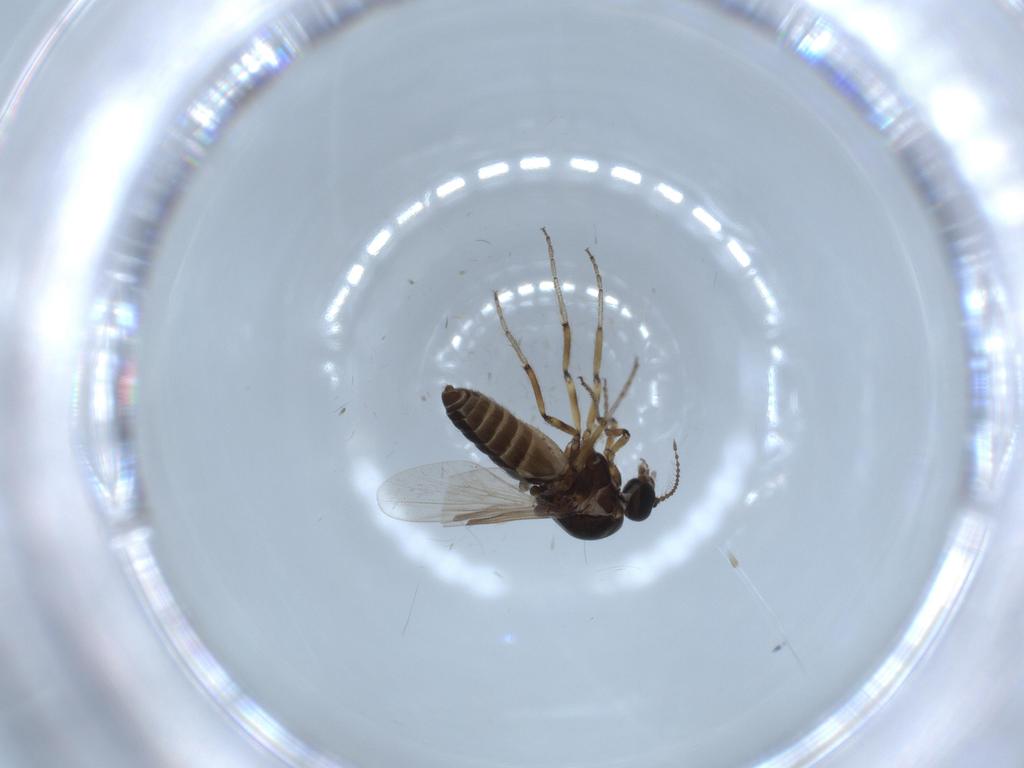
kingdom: Animalia
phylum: Arthropoda
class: Insecta
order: Diptera
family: Ceratopogonidae
